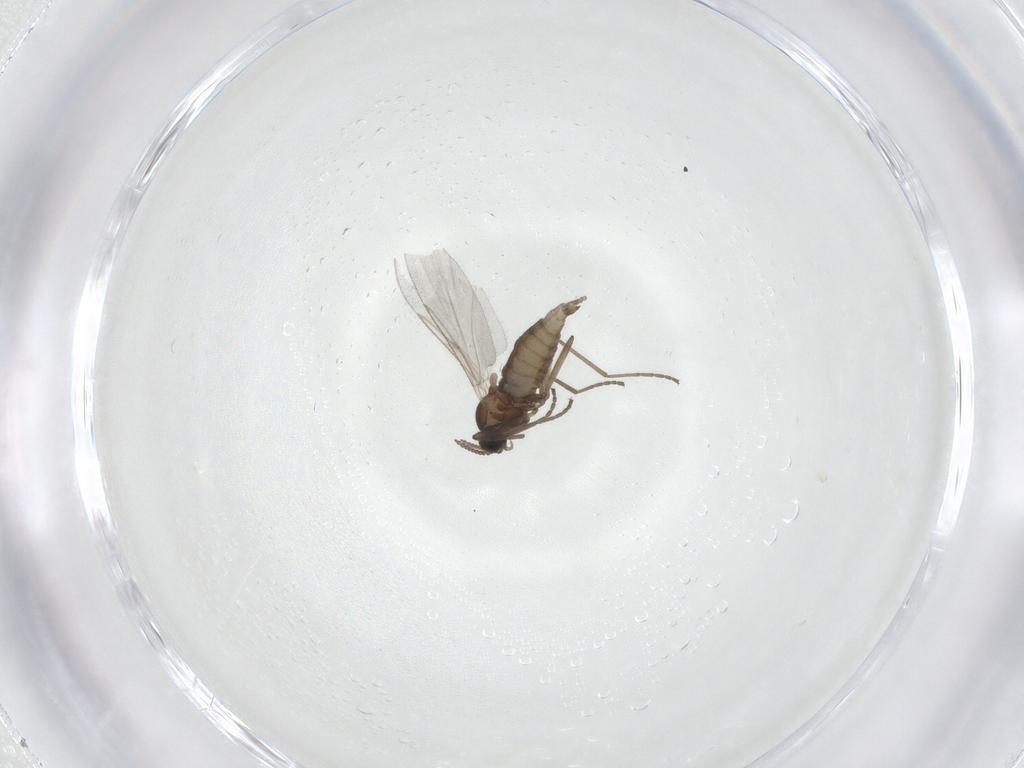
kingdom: Animalia
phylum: Arthropoda
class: Insecta
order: Diptera
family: Cecidomyiidae
